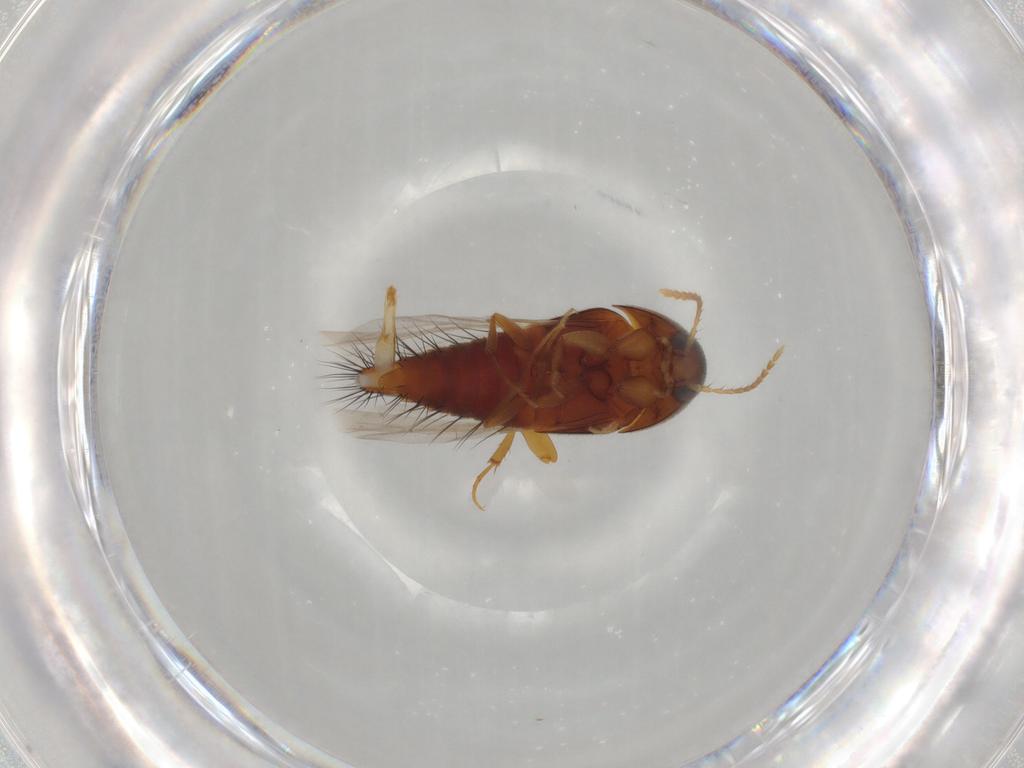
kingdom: Animalia
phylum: Arthropoda
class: Insecta
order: Coleoptera
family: Staphylinidae
